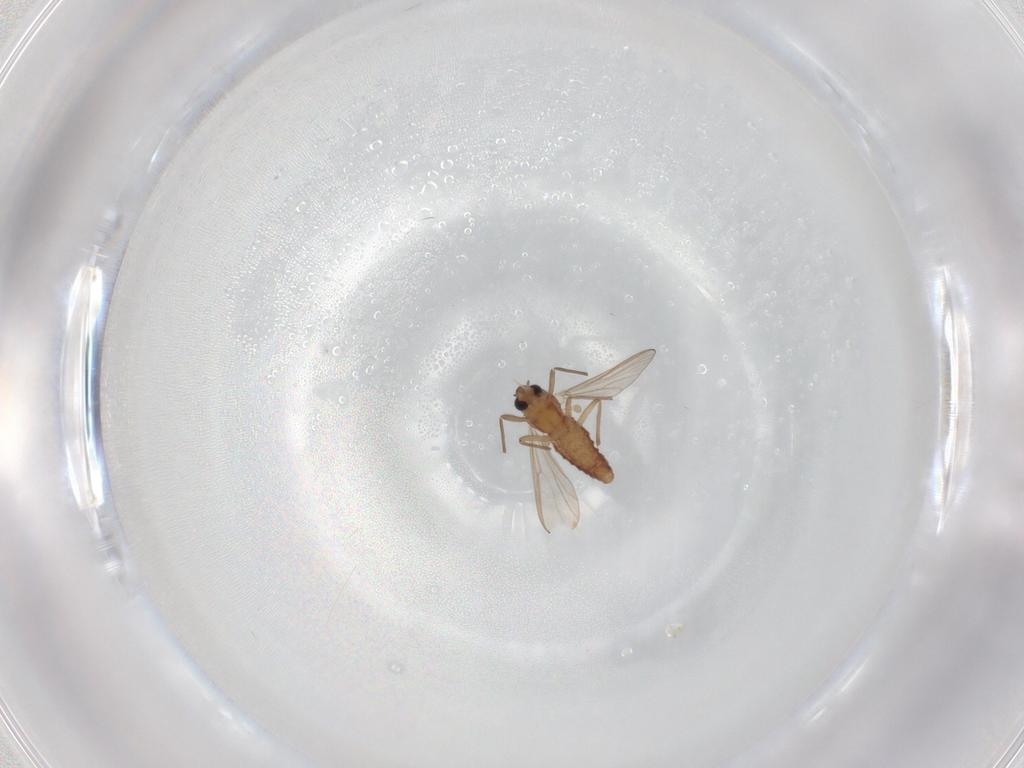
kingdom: Animalia
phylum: Arthropoda
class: Insecta
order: Diptera
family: Chironomidae
